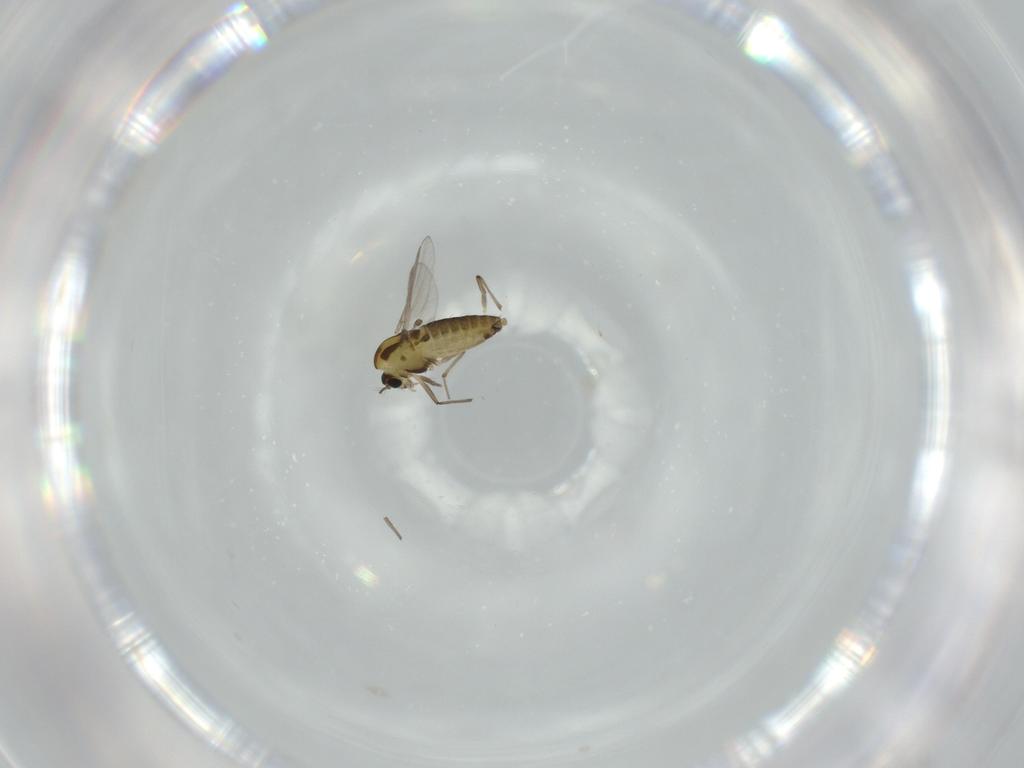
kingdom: Animalia
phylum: Arthropoda
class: Insecta
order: Diptera
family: Chironomidae
